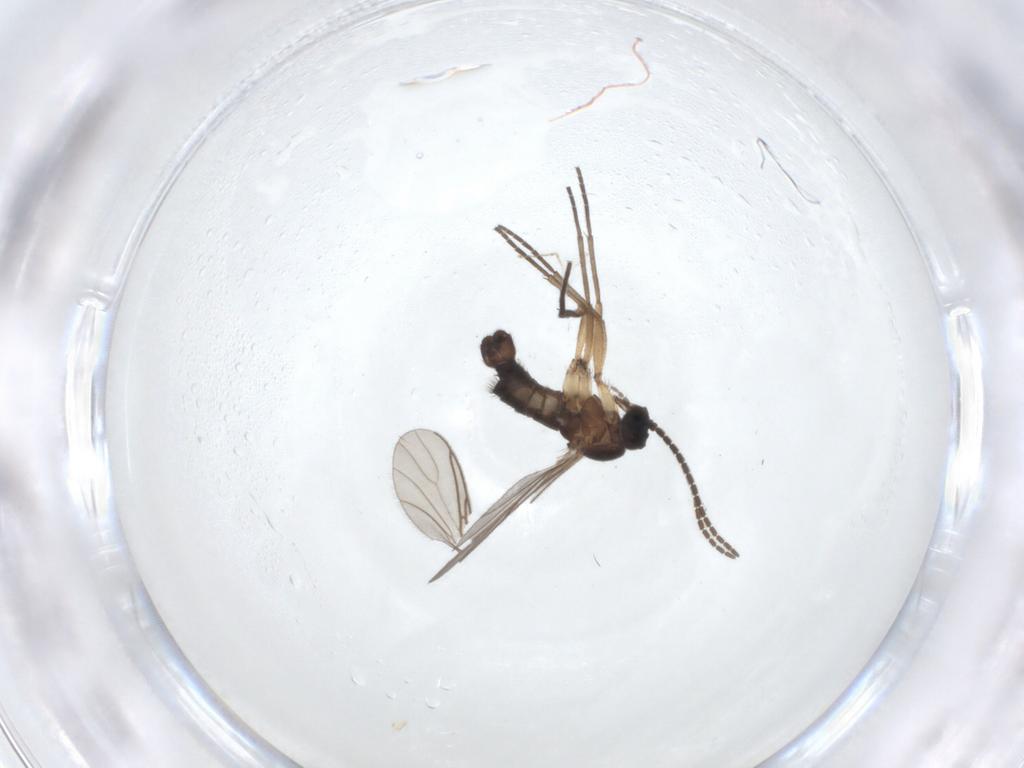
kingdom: Animalia
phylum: Arthropoda
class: Insecta
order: Diptera
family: Sciaridae
